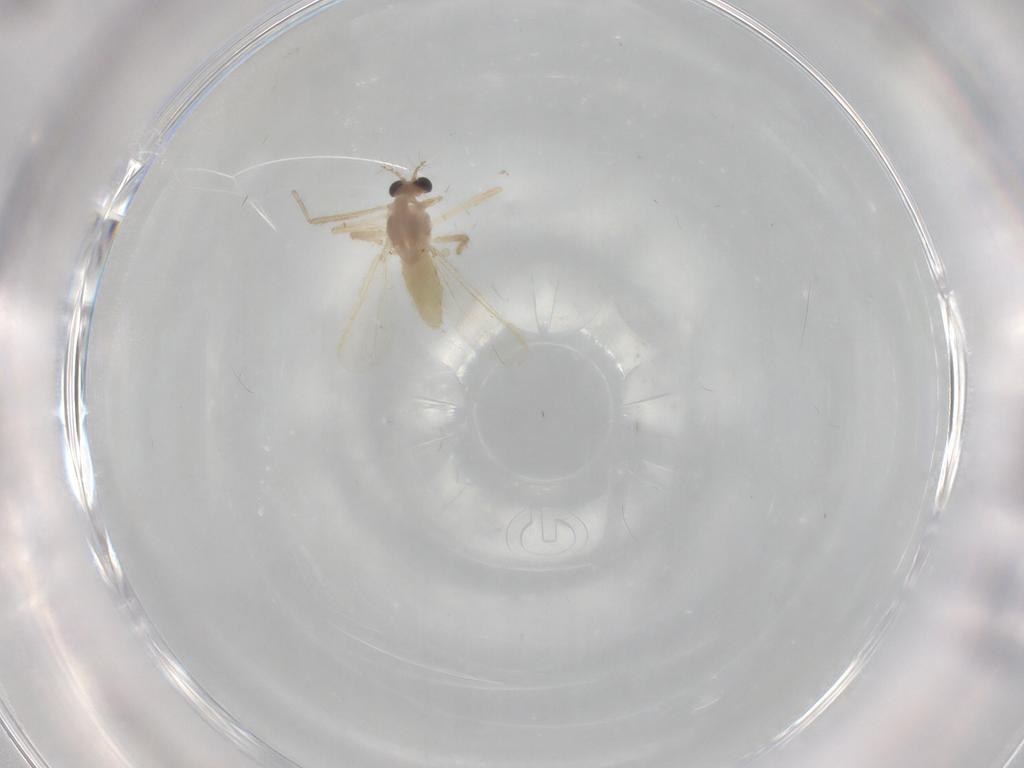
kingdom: Animalia
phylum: Arthropoda
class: Insecta
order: Diptera
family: Chironomidae
